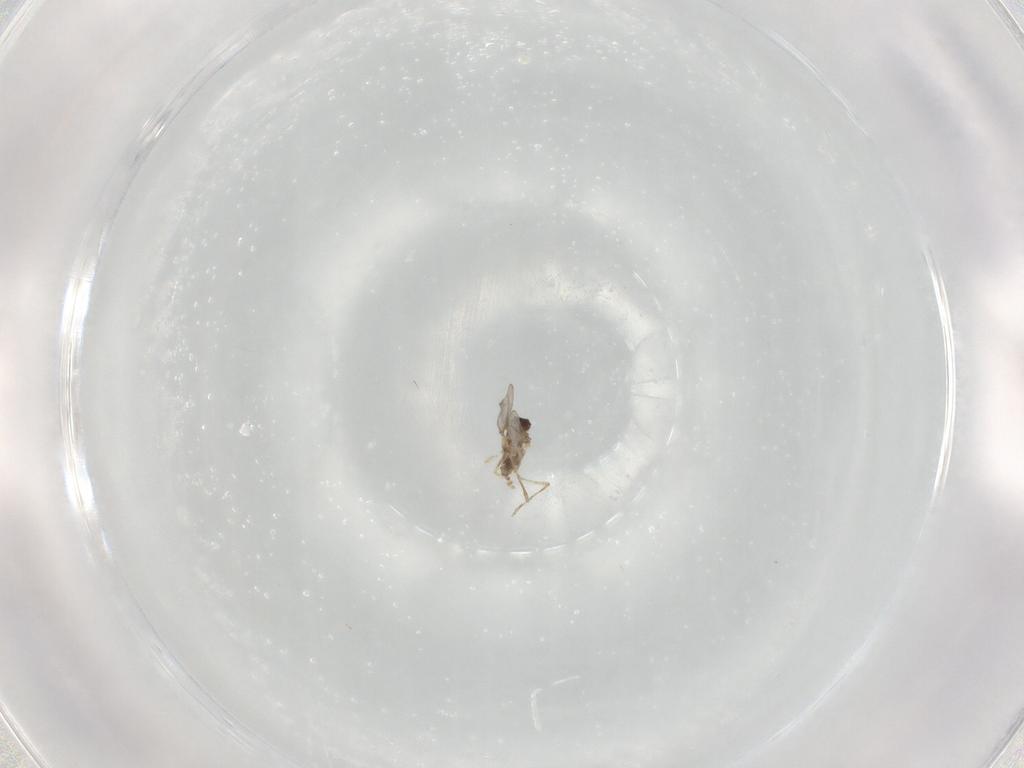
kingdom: Animalia
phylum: Arthropoda
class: Insecta
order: Diptera
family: Cecidomyiidae
